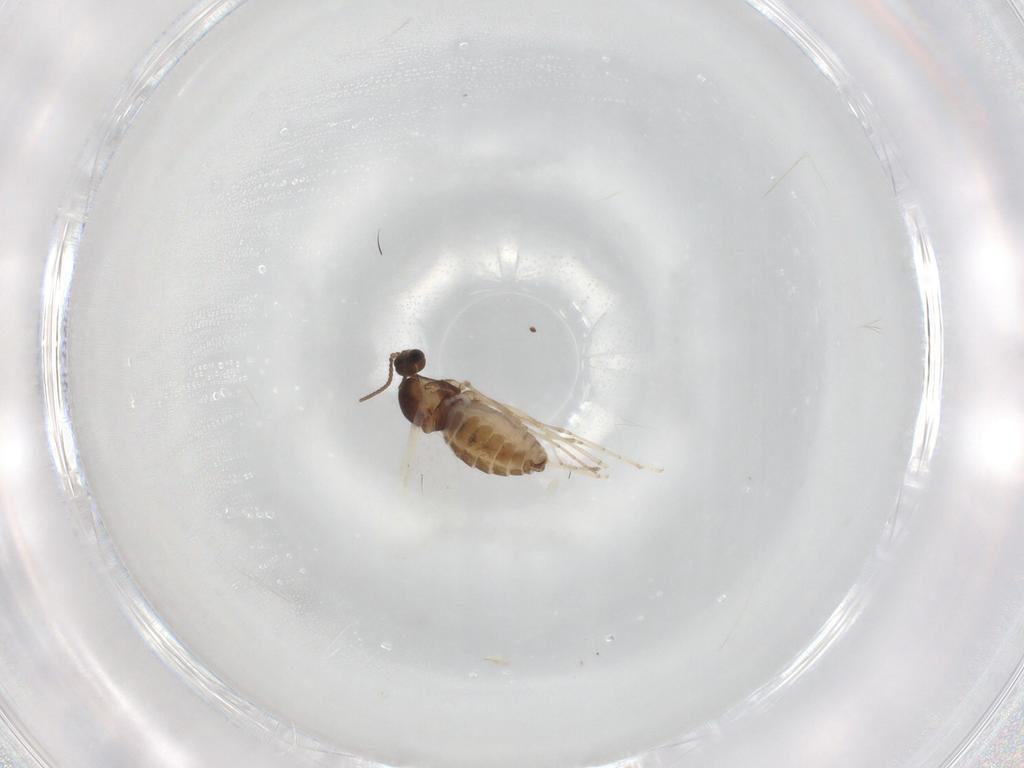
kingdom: Animalia
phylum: Arthropoda
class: Insecta
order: Diptera
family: Cecidomyiidae
